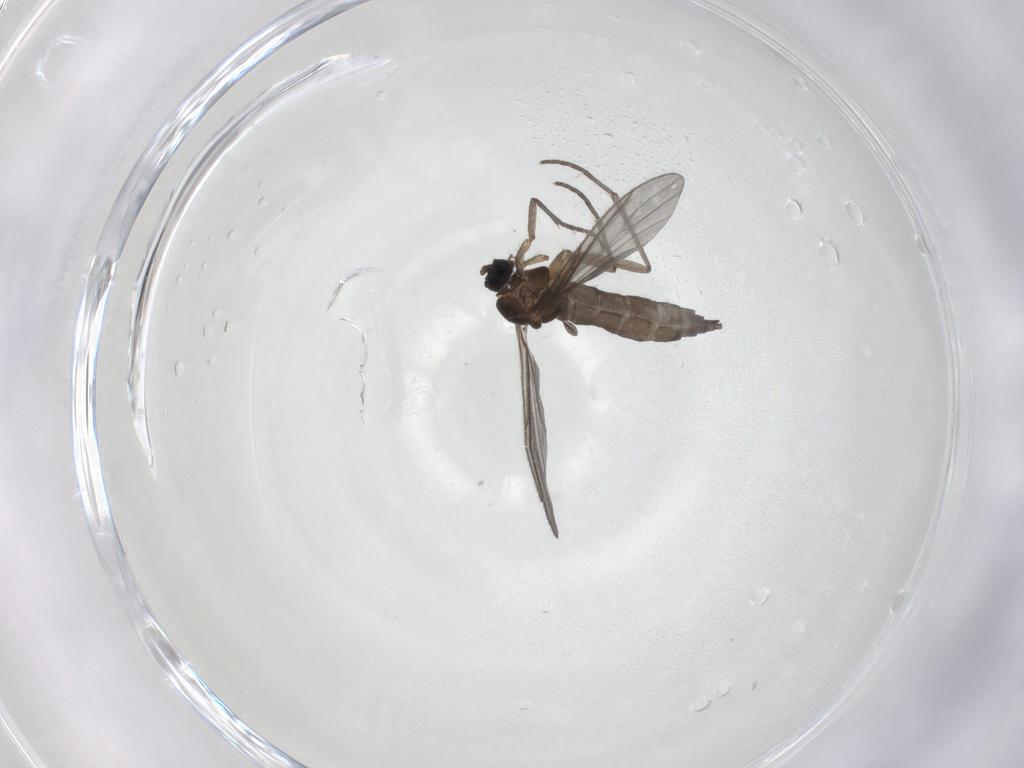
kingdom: Animalia
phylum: Arthropoda
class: Insecta
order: Diptera
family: Sciaridae
